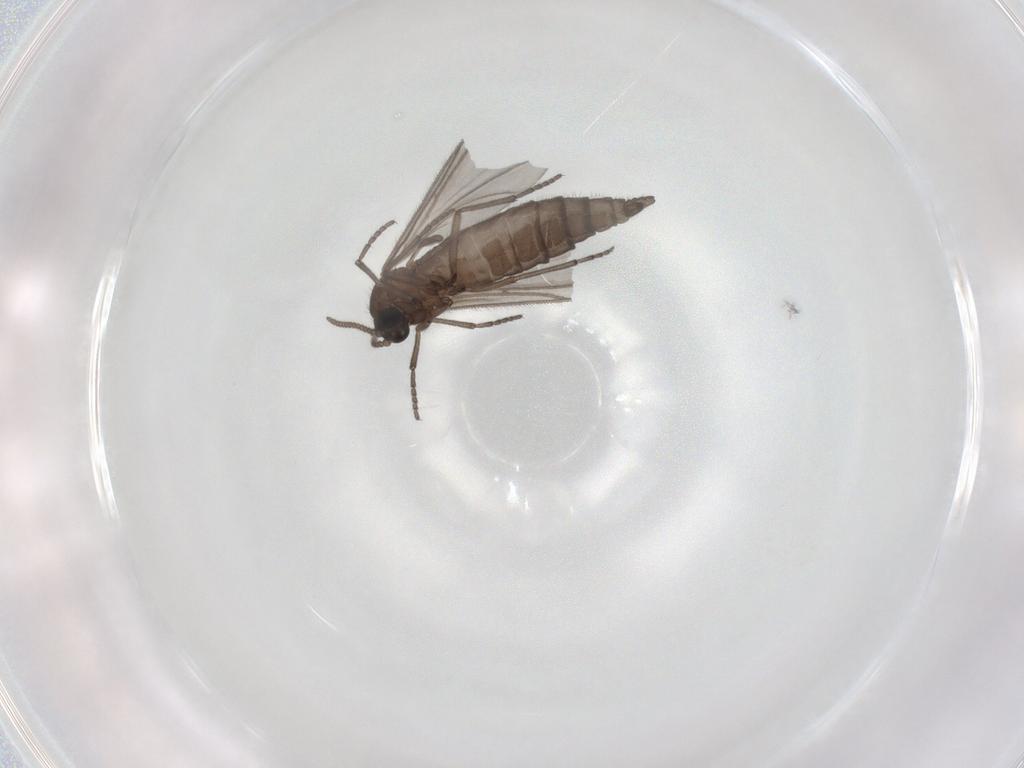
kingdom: Animalia
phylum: Arthropoda
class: Insecta
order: Diptera
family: Sciaridae
